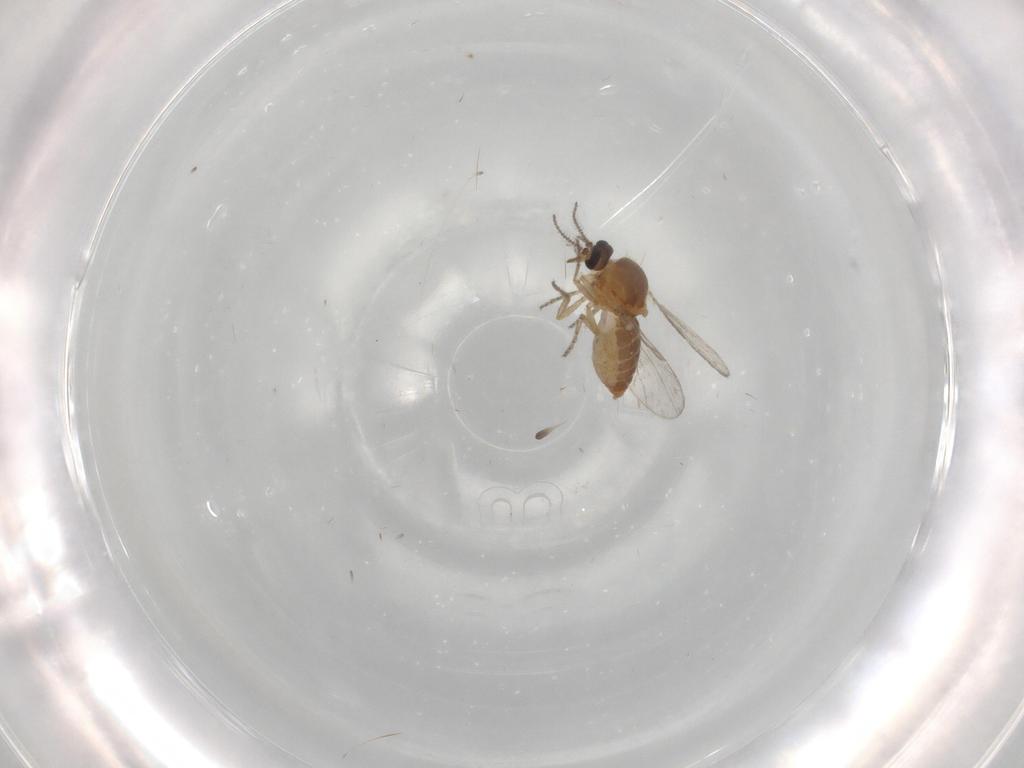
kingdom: Animalia
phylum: Arthropoda
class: Insecta
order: Diptera
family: Ceratopogonidae
